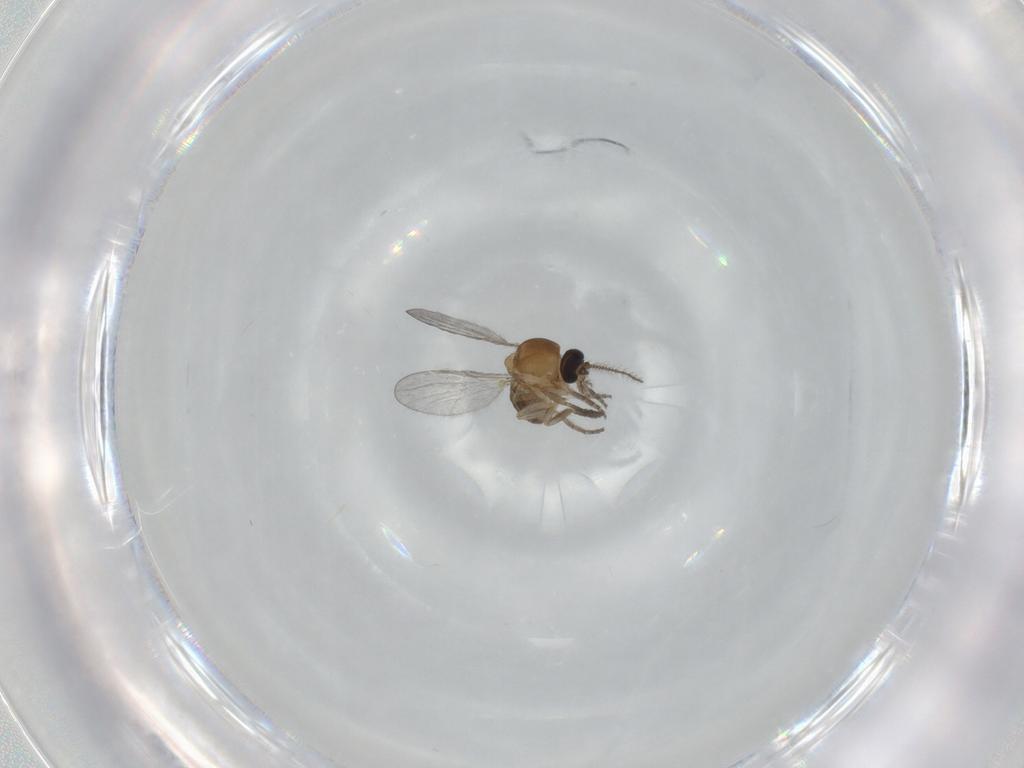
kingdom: Animalia
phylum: Arthropoda
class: Insecta
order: Diptera
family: Ceratopogonidae
